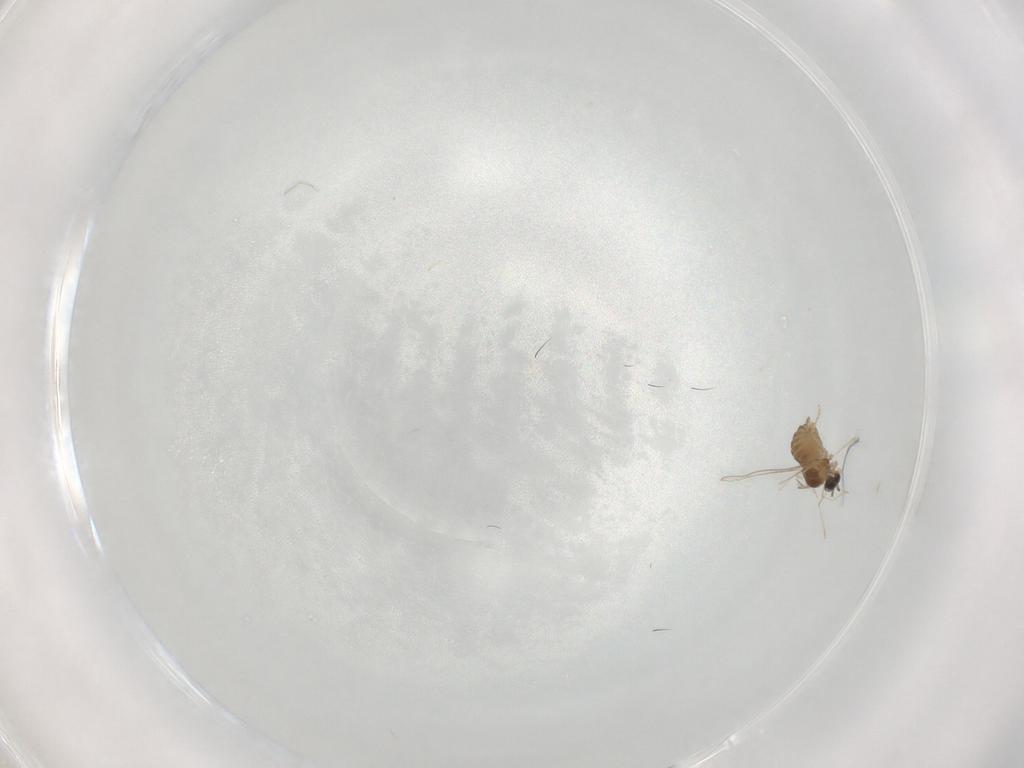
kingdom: Animalia
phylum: Arthropoda
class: Insecta
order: Diptera
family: Cecidomyiidae
